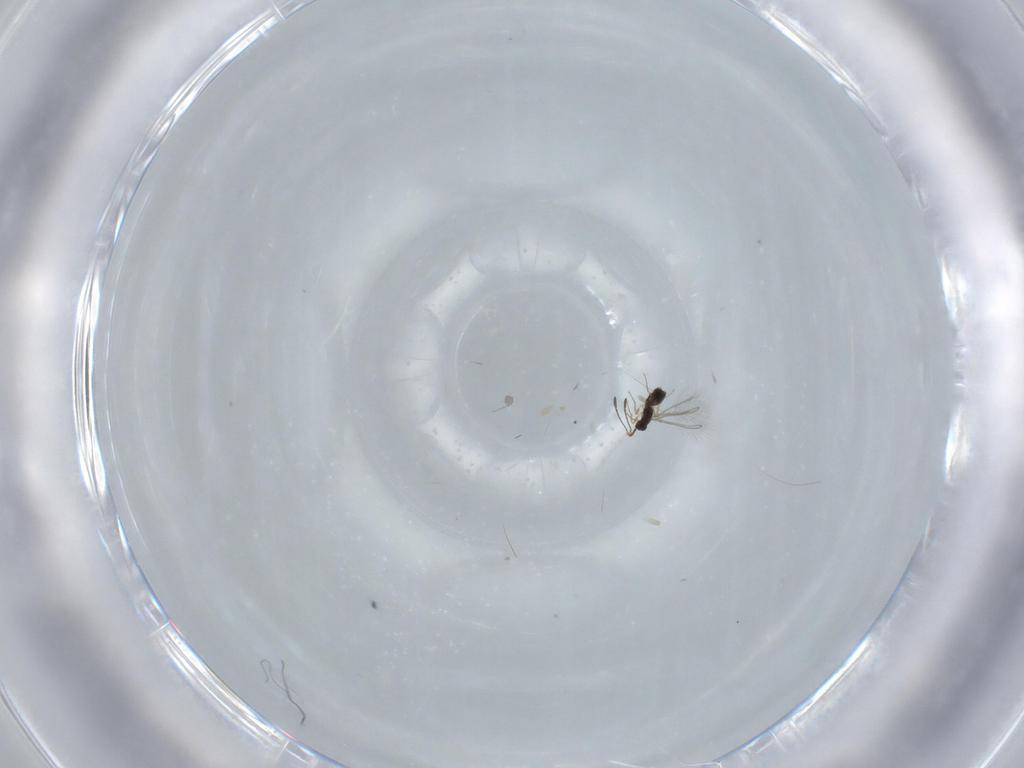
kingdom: Animalia
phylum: Arthropoda
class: Insecta
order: Hymenoptera
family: Mymaridae
